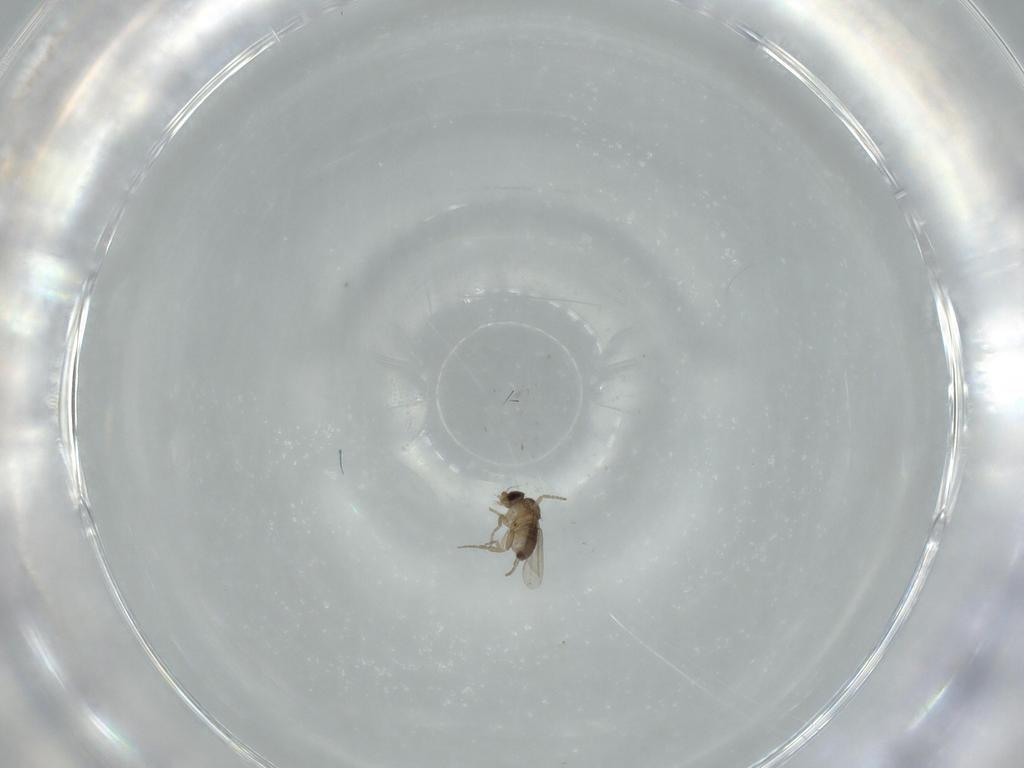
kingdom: Animalia
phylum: Arthropoda
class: Insecta
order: Diptera
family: Cecidomyiidae
